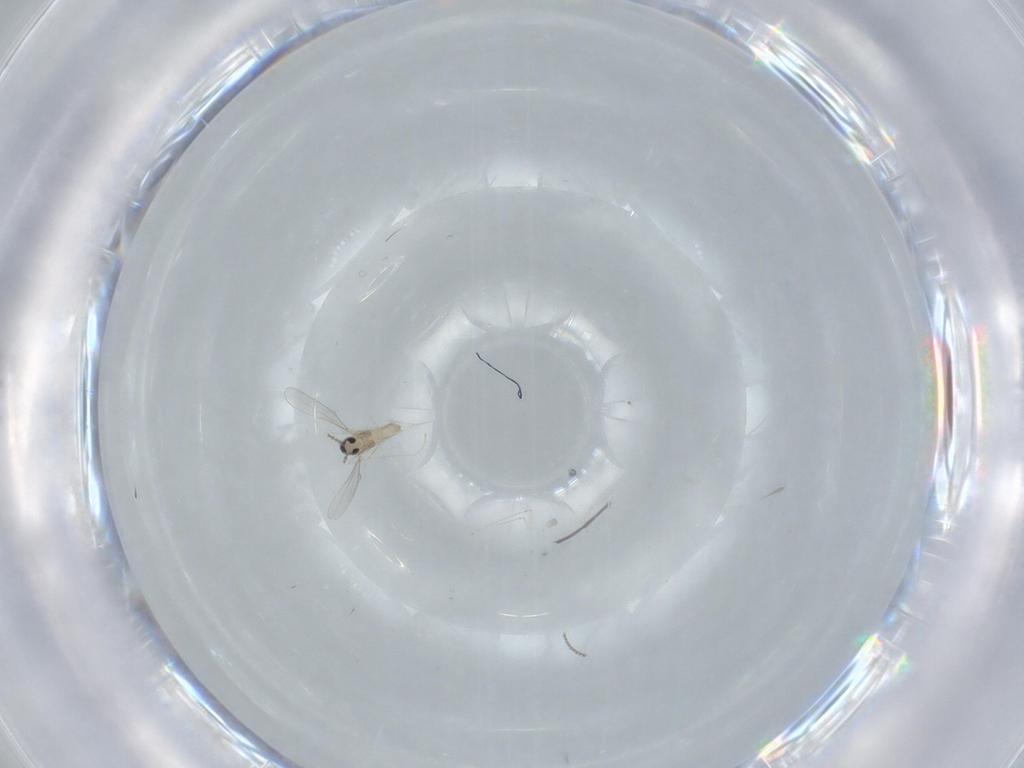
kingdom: Animalia
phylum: Arthropoda
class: Insecta
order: Diptera
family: Cecidomyiidae
